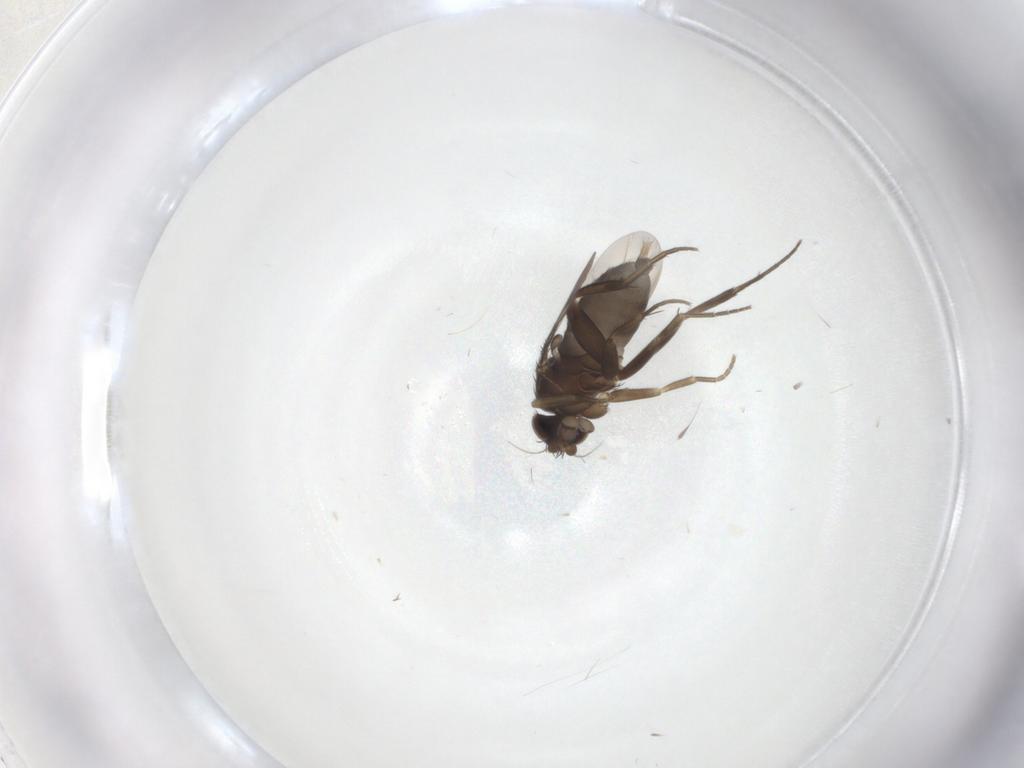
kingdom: Animalia
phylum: Arthropoda
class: Insecta
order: Diptera
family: Phoridae
